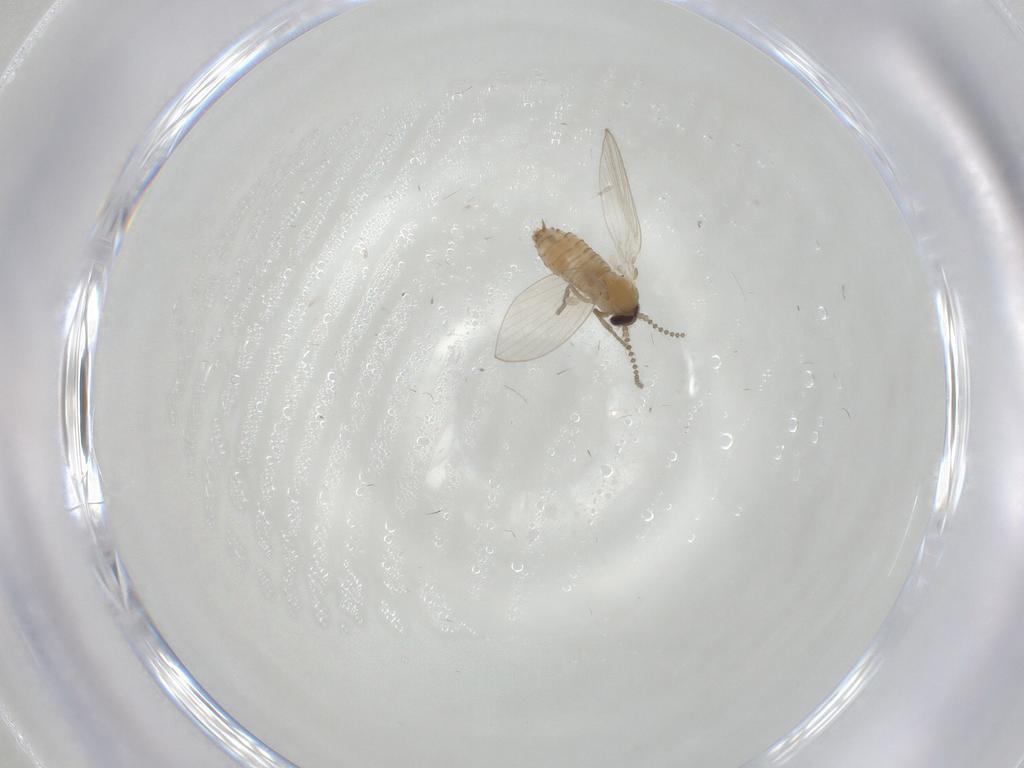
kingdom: Animalia
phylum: Arthropoda
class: Insecta
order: Diptera
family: Psychodidae
